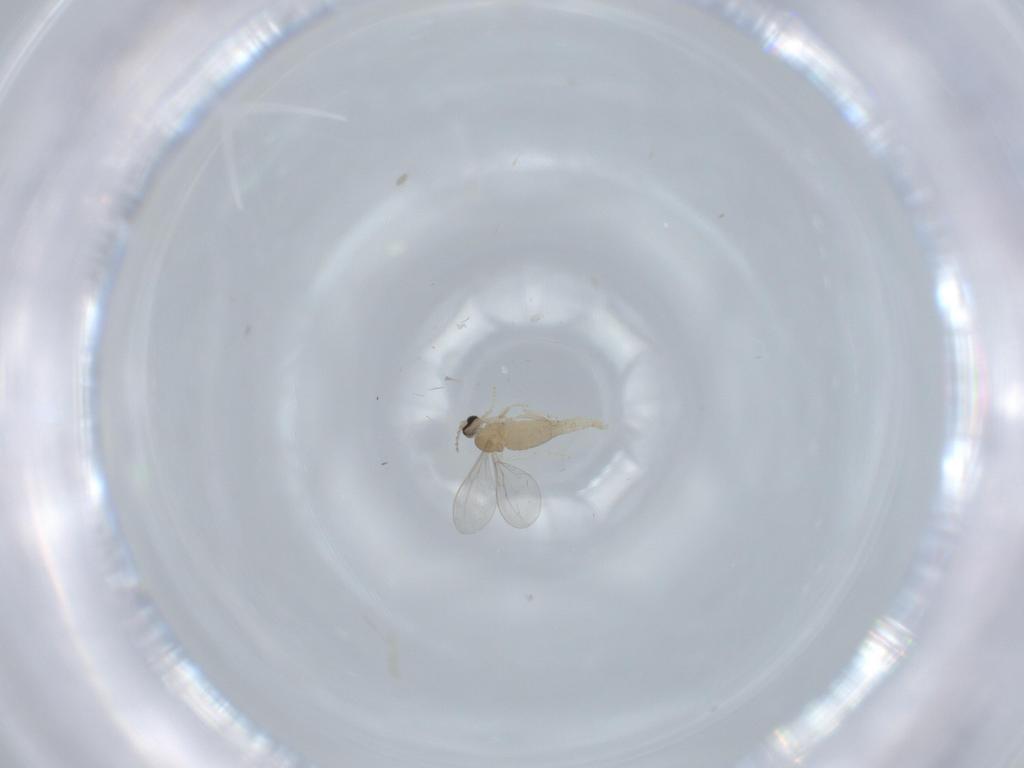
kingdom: Animalia
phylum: Arthropoda
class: Insecta
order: Diptera
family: Cecidomyiidae
